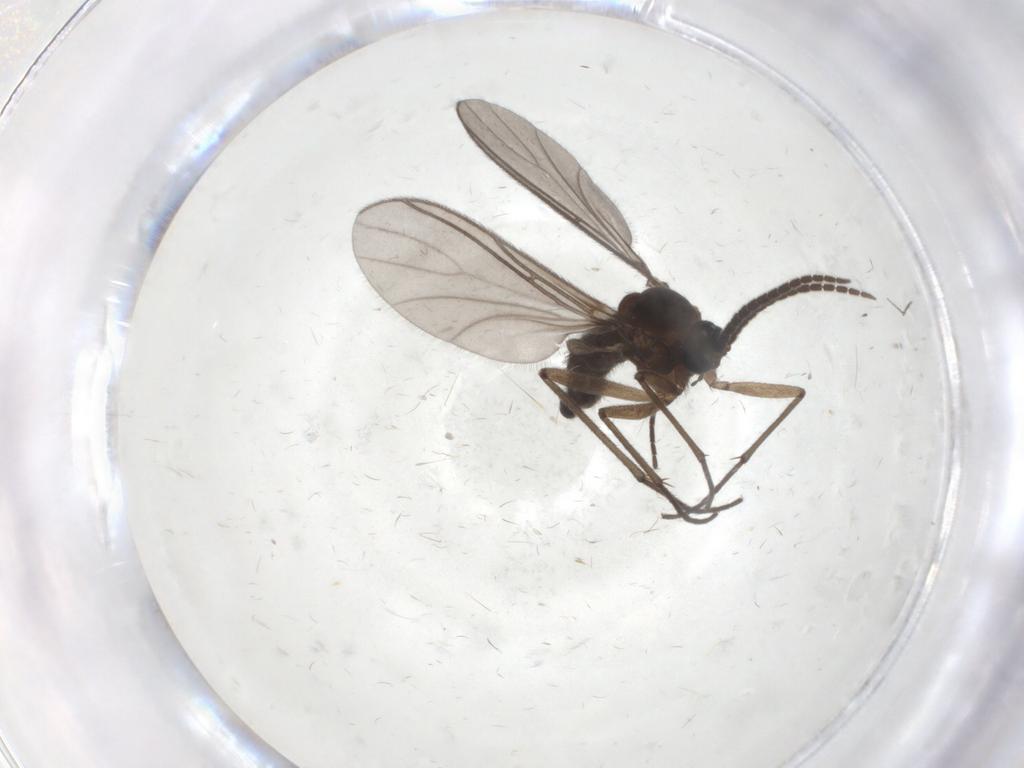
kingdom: Animalia
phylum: Arthropoda
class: Insecta
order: Diptera
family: Sciaridae
